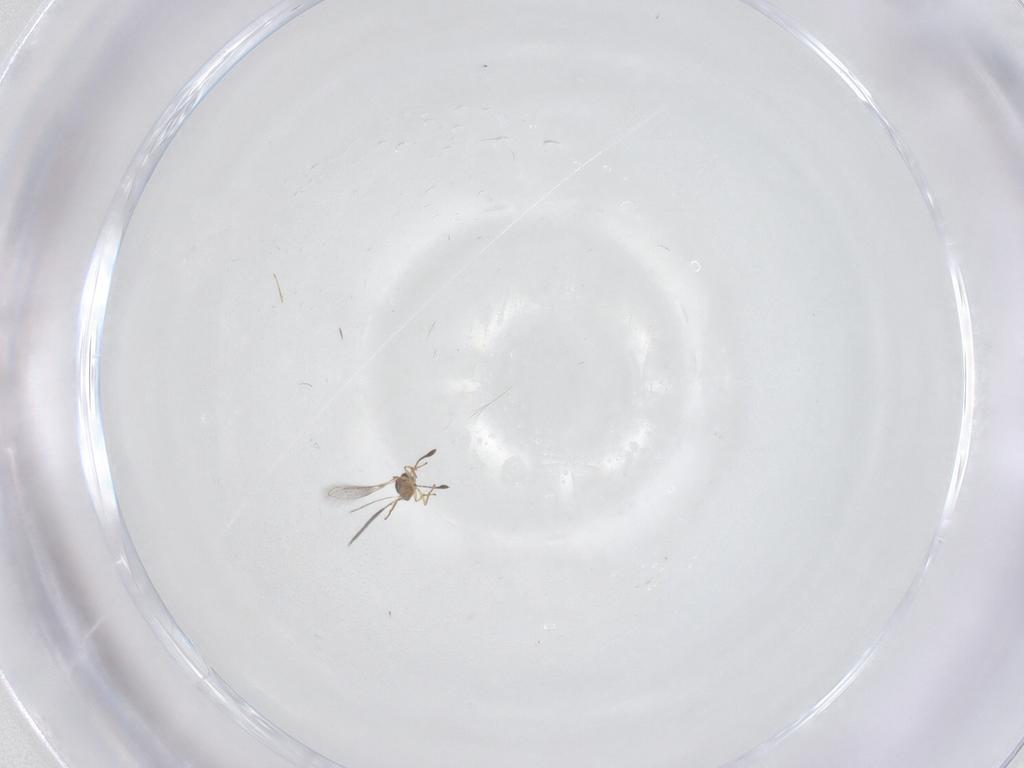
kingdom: Animalia
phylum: Arthropoda
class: Insecta
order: Hymenoptera
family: Mymaridae
